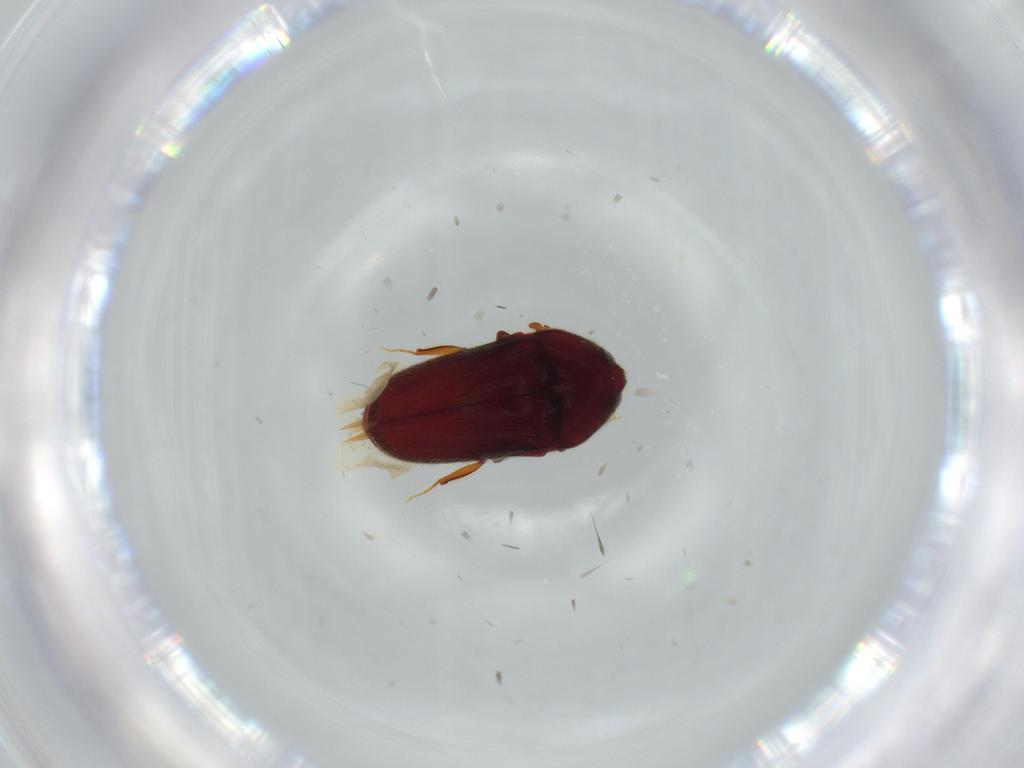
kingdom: Animalia
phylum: Arthropoda
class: Insecta
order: Coleoptera
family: Throscidae
